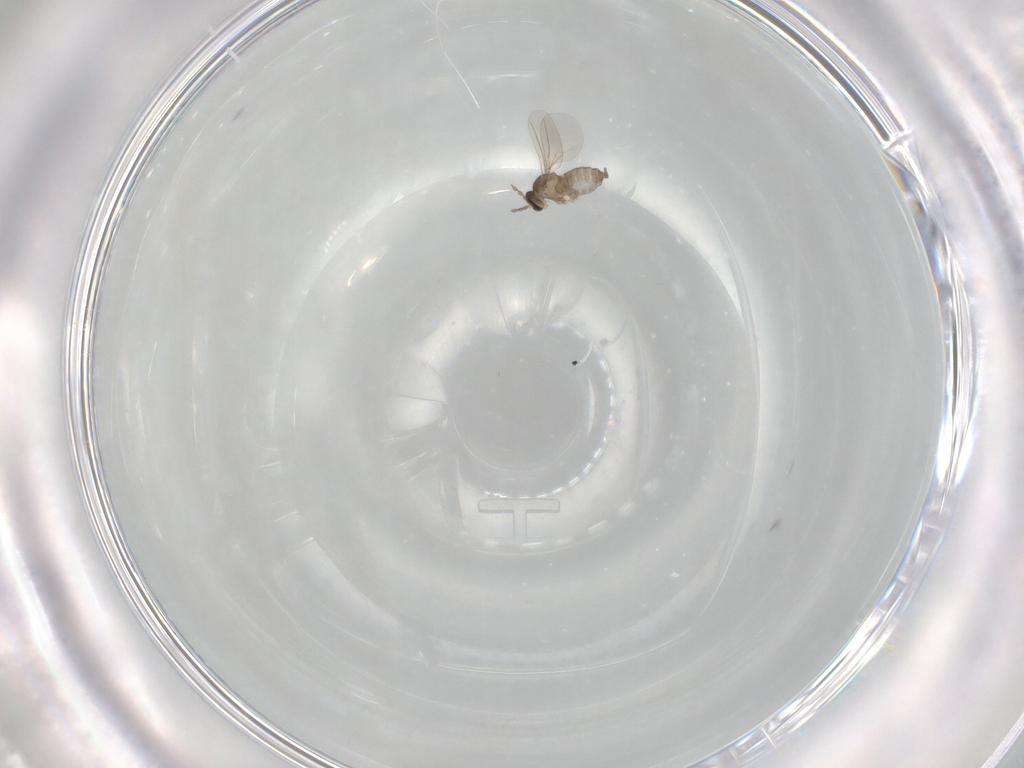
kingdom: Animalia
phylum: Arthropoda
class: Insecta
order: Diptera
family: Cecidomyiidae
